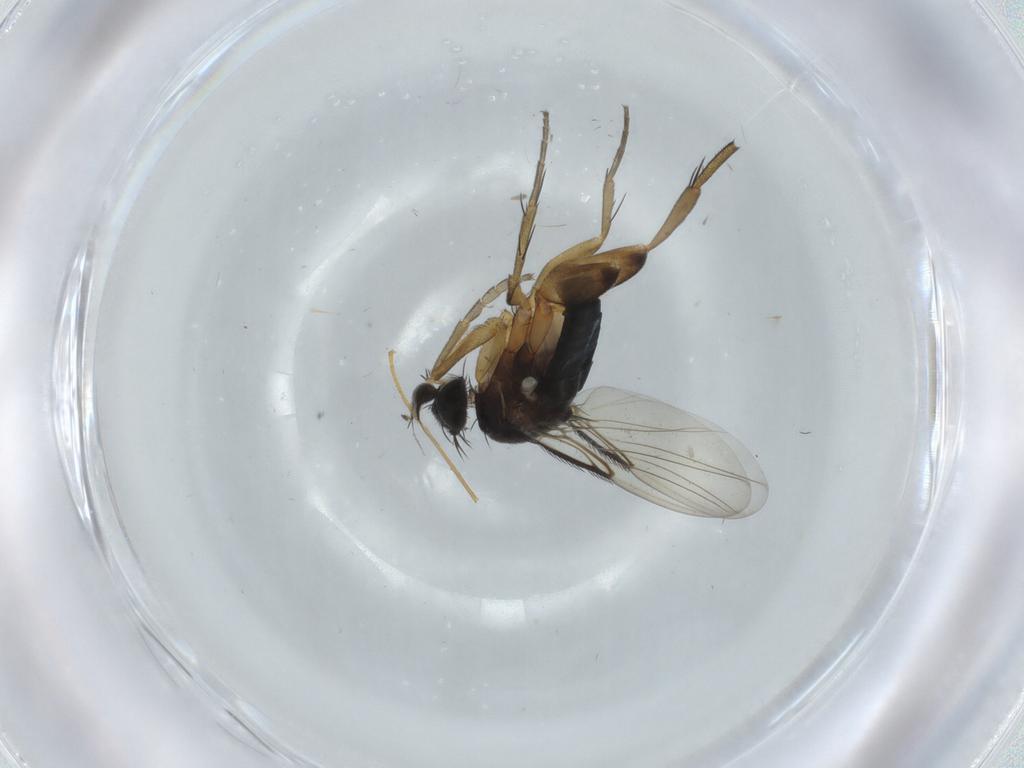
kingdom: Animalia
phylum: Arthropoda
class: Insecta
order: Diptera
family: Phoridae
